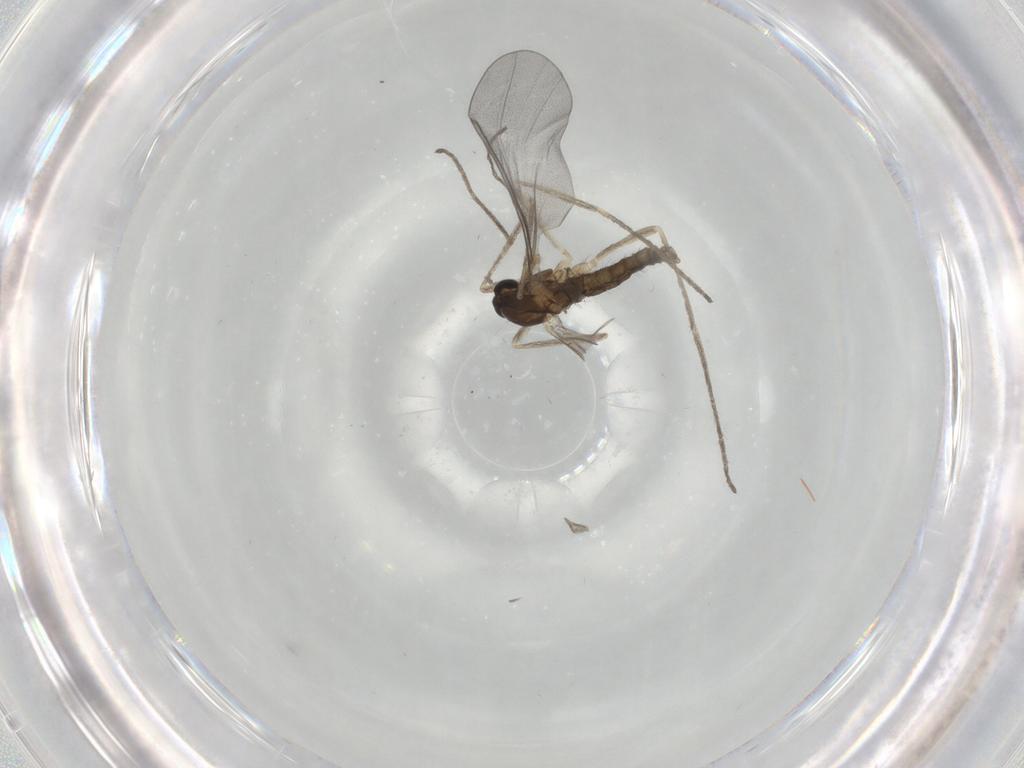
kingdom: Animalia
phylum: Arthropoda
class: Insecta
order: Diptera
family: Cecidomyiidae
